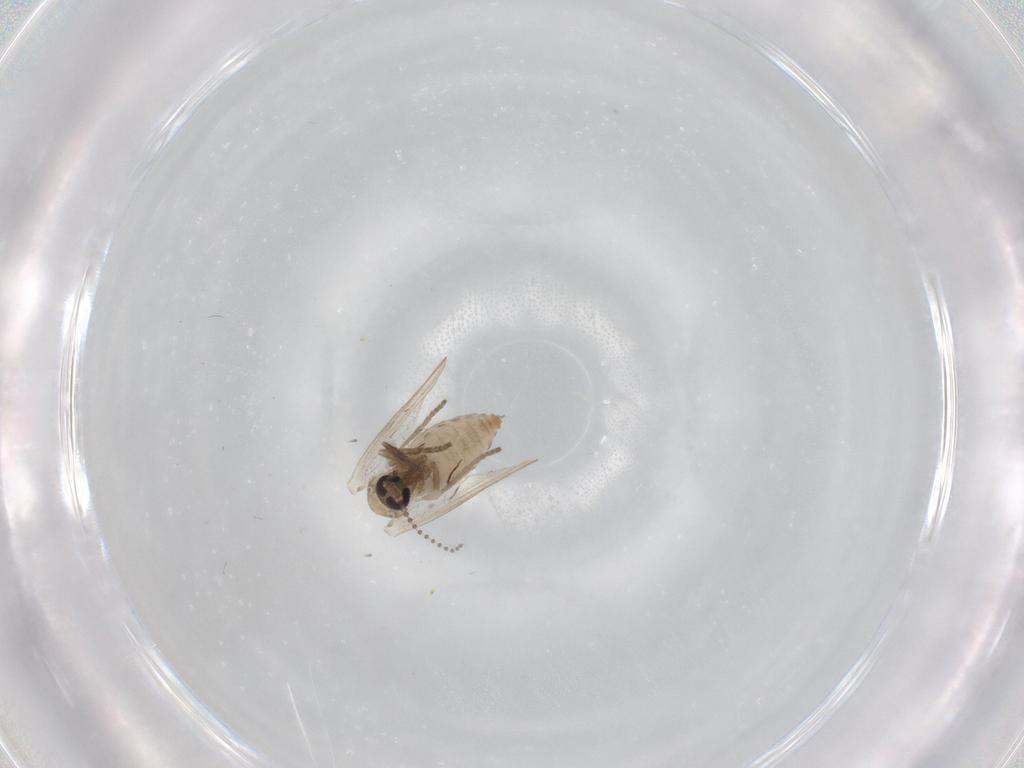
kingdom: Animalia
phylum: Arthropoda
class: Insecta
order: Diptera
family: Psychodidae
